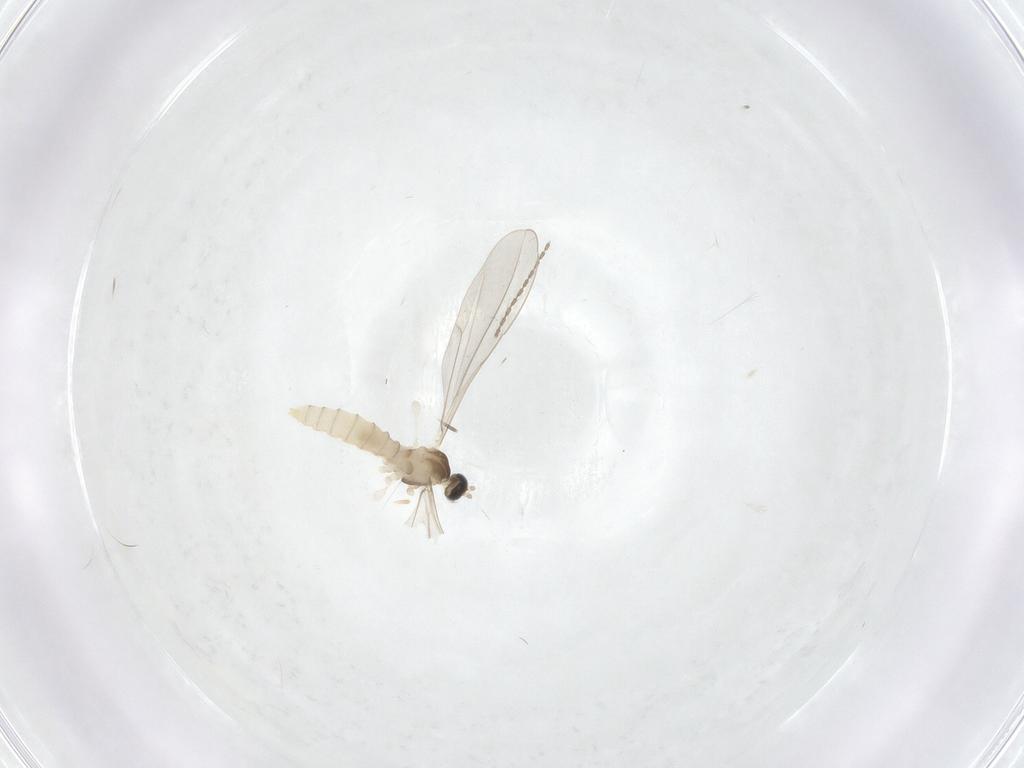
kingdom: Animalia
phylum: Arthropoda
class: Insecta
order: Diptera
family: Cecidomyiidae
